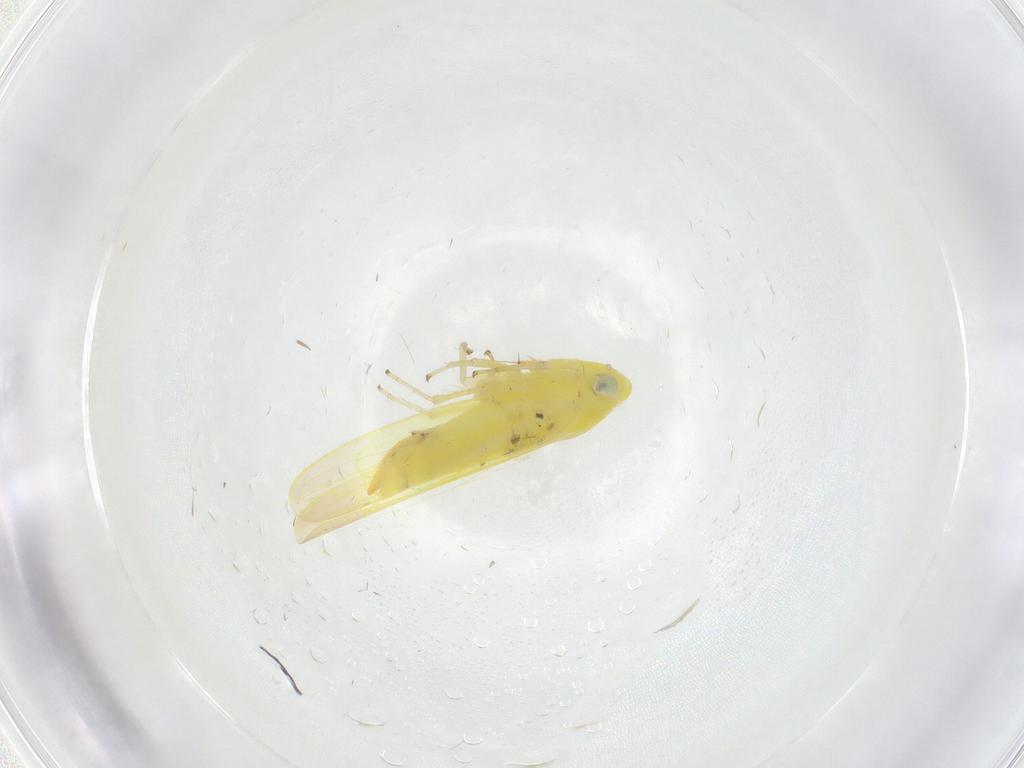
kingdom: Animalia
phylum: Arthropoda
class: Insecta
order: Hemiptera
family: Cicadellidae
